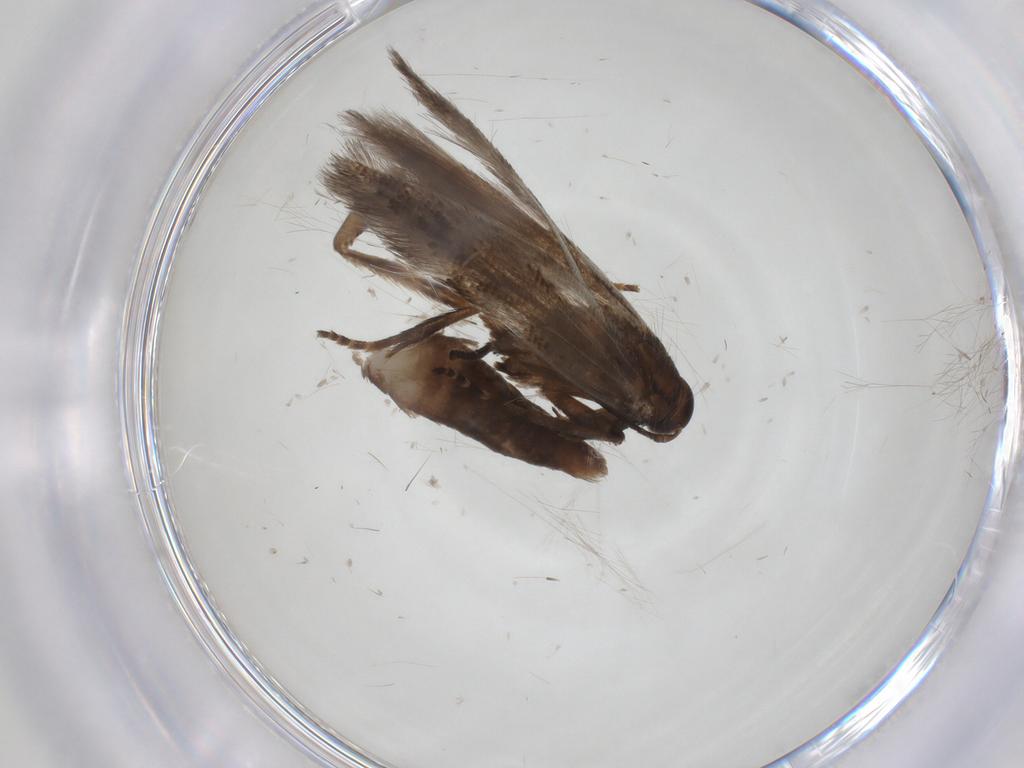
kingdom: Animalia
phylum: Arthropoda
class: Insecta
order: Lepidoptera
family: Gelechiidae
